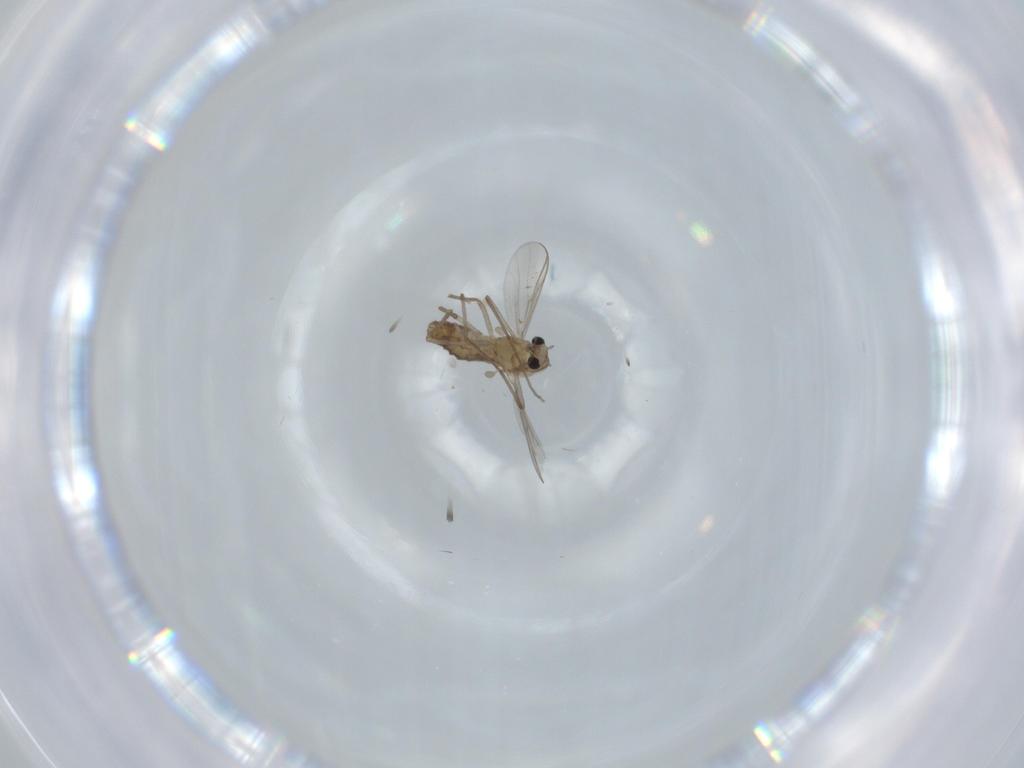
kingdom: Animalia
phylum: Arthropoda
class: Insecta
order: Diptera
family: Chironomidae
